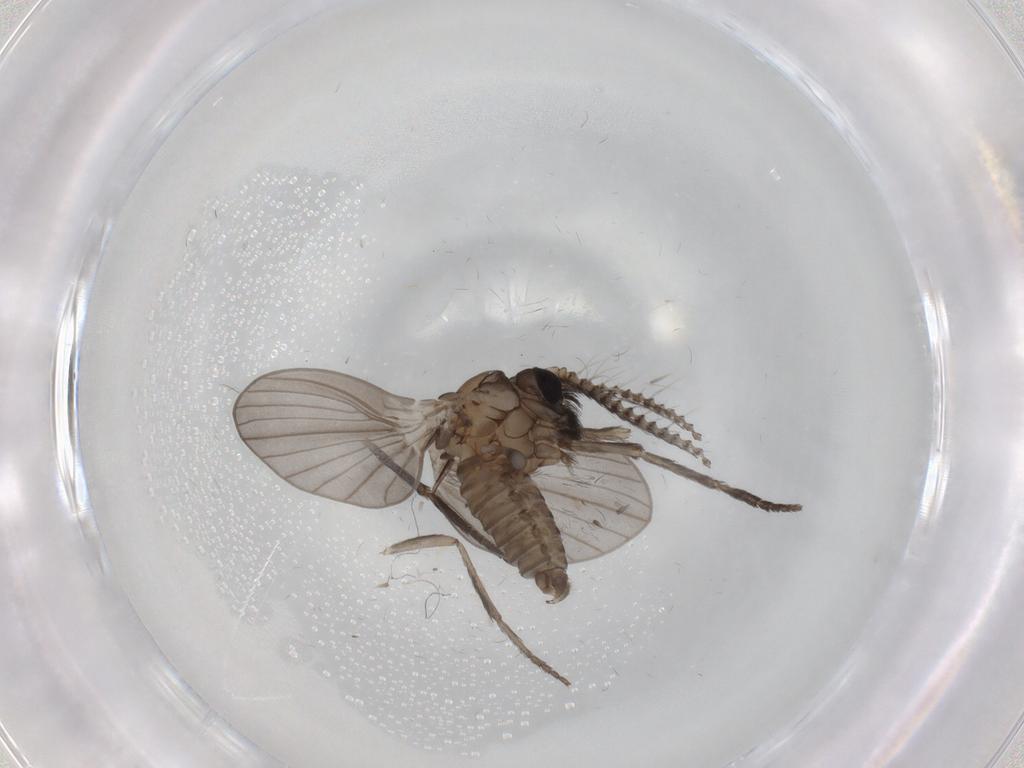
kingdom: Animalia
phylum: Arthropoda
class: Insecta
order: Diptera
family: Psychodidae
